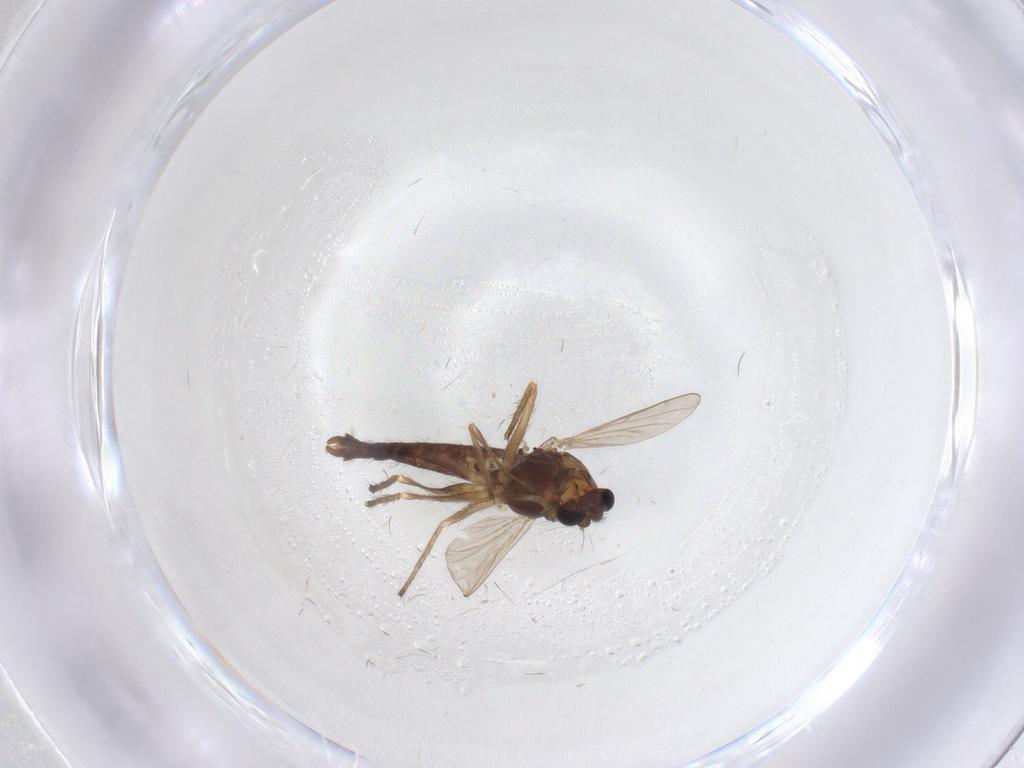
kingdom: Animalia
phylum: Arthropoda
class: Insecta
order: Diptera
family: Chironomidae
